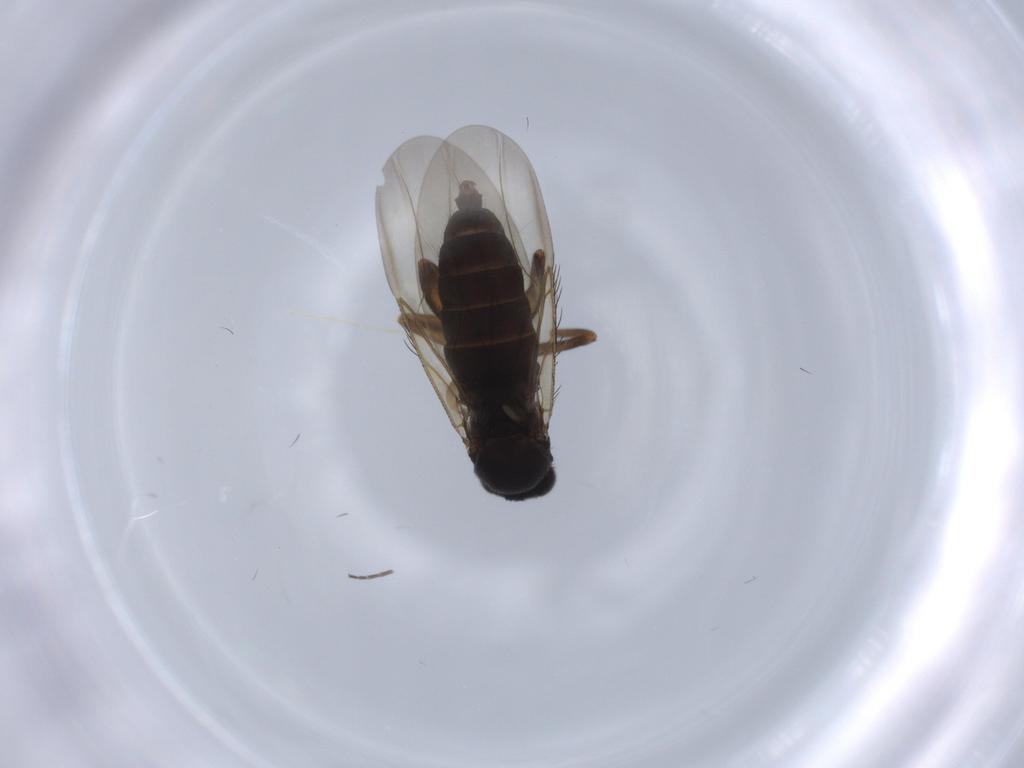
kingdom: Animalia
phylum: Arthropoda
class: Insecta
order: Diptera
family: Phoridae
